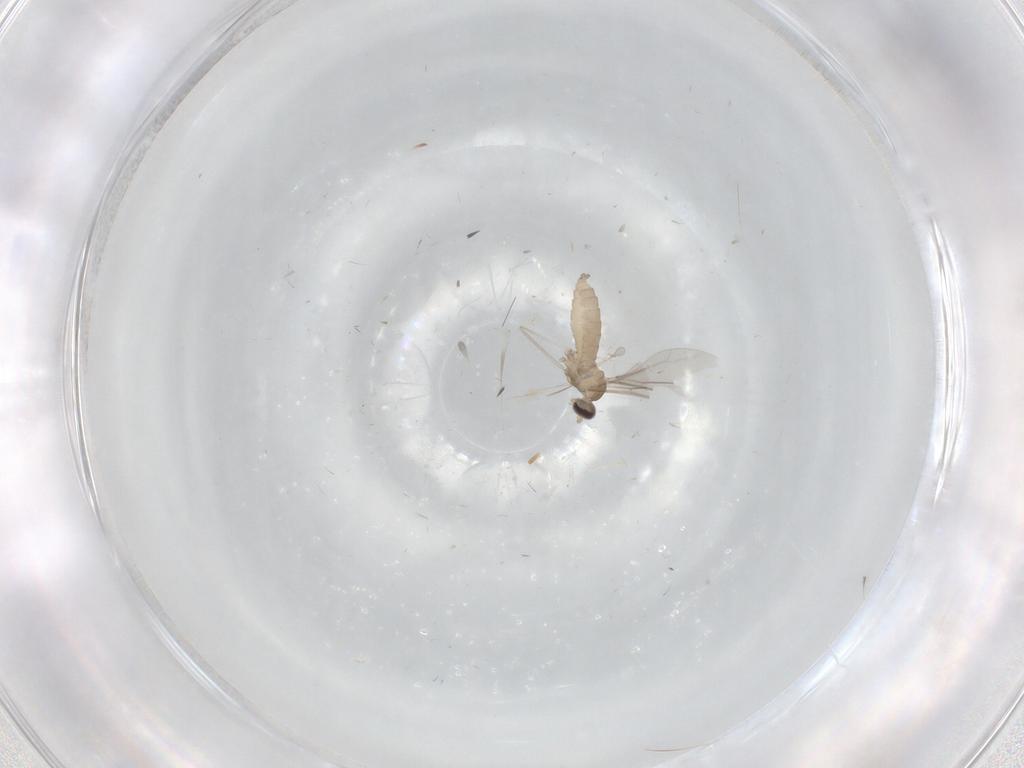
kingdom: Animalia
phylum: Arthropoda
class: Insecta
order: Diptera
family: Cecidomyiidae
